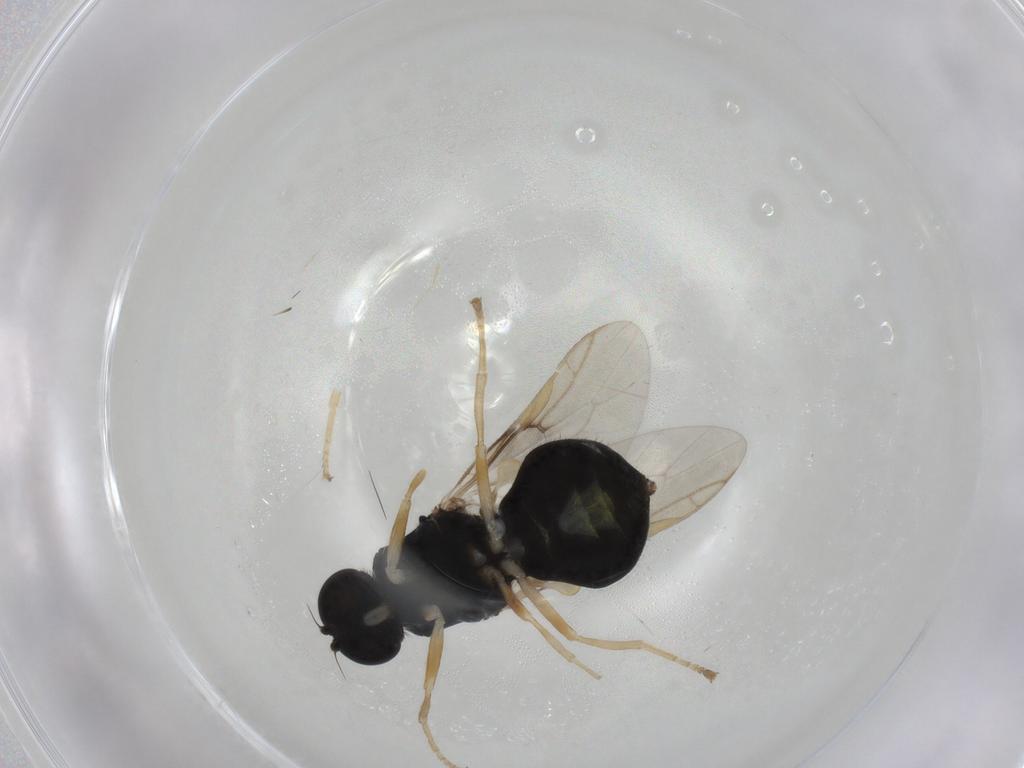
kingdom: Animalia
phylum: Arthropoda
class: Insecta
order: Diptera
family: Stratiomyidae
